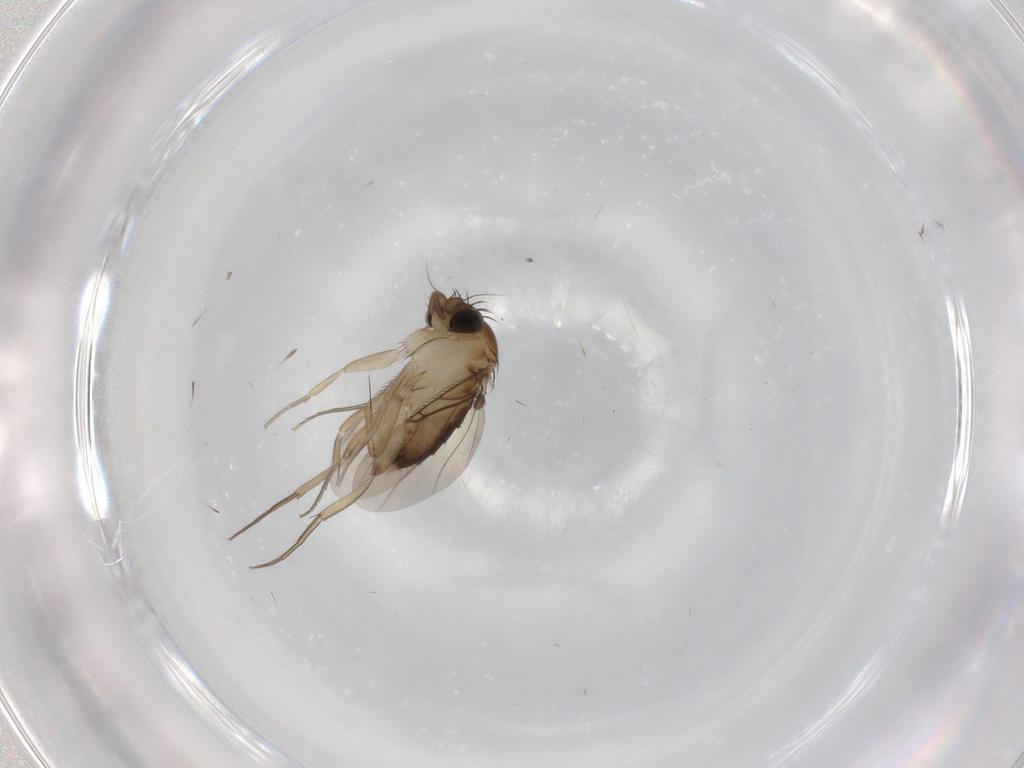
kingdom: Animalia
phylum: Arthropoda
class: Insecta
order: Diptera
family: Phoridae
